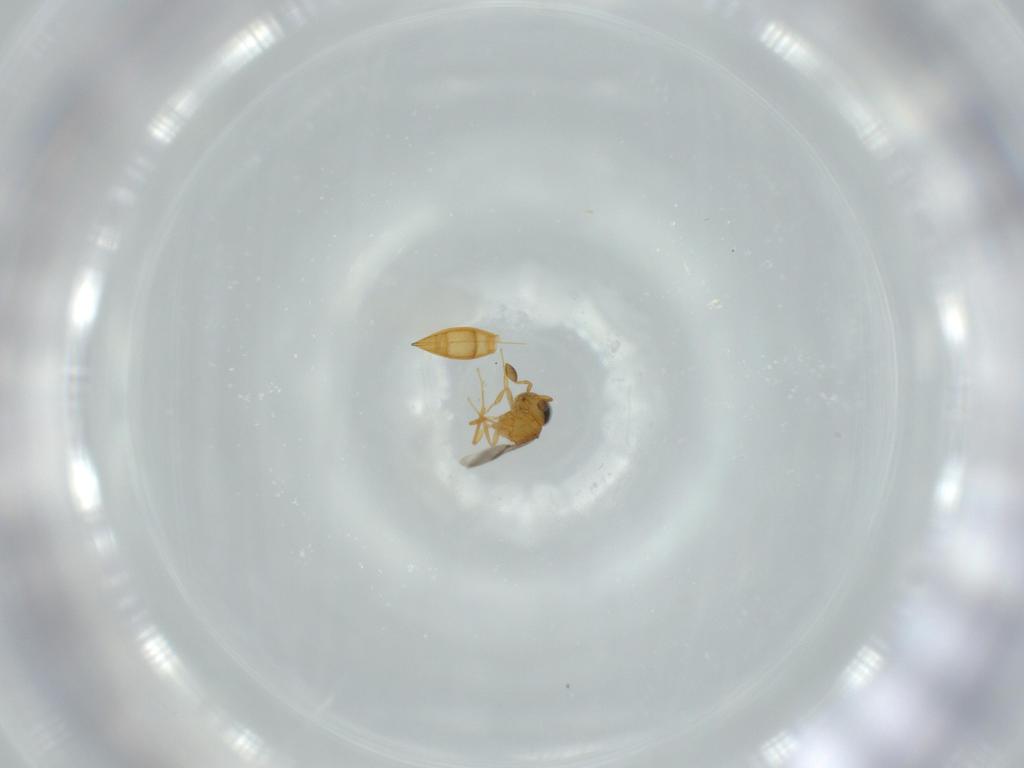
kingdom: Animalia
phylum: Arthropoda
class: Insecta
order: Hymenoptera
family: Scelionidae
